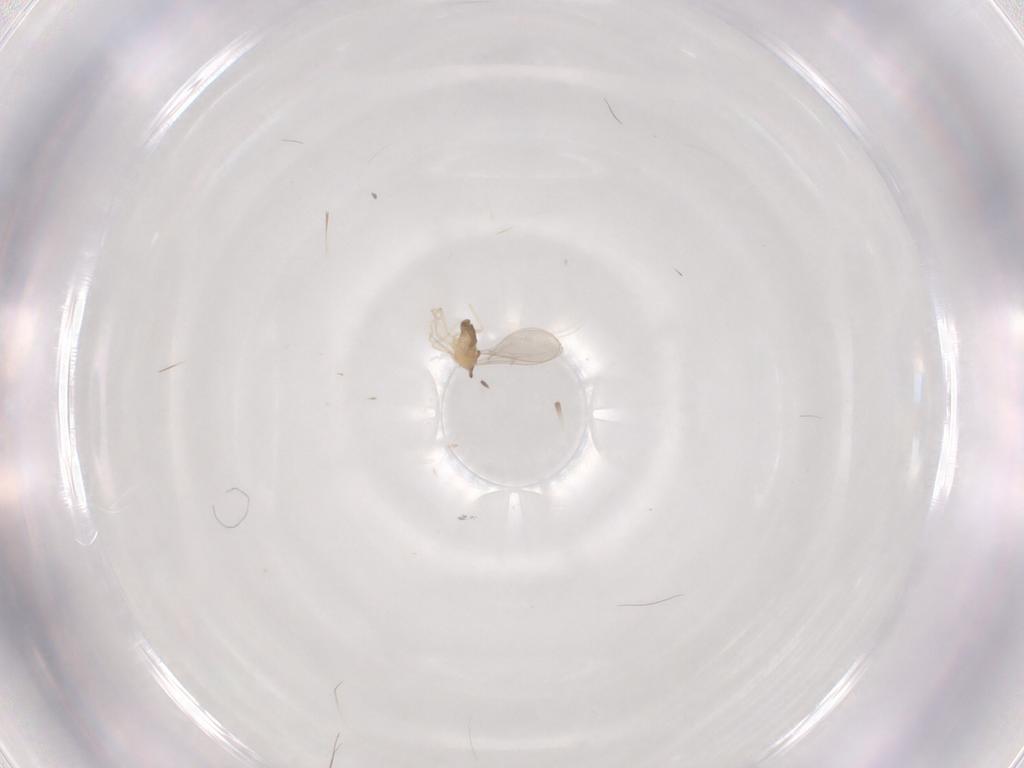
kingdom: Animalia
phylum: Arthropoda
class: Insecta
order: Diptera
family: Cecidomyiidae
